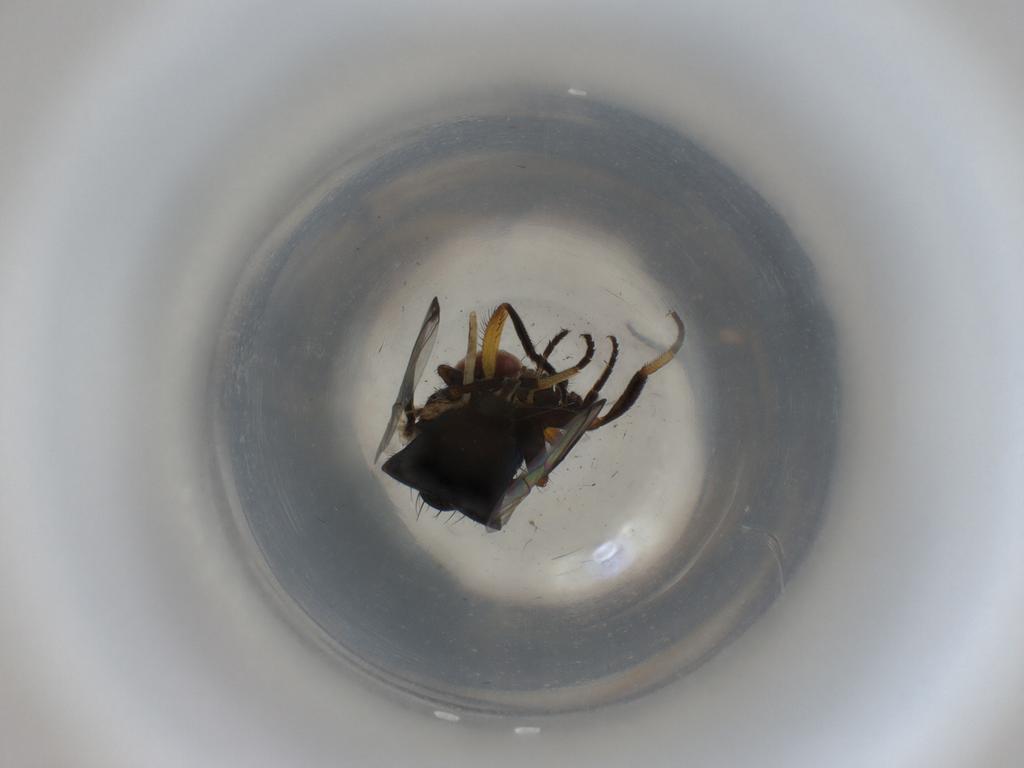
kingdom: Animalia
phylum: Arthropoda
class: Insecta
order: Diptera
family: Ulidiidae
